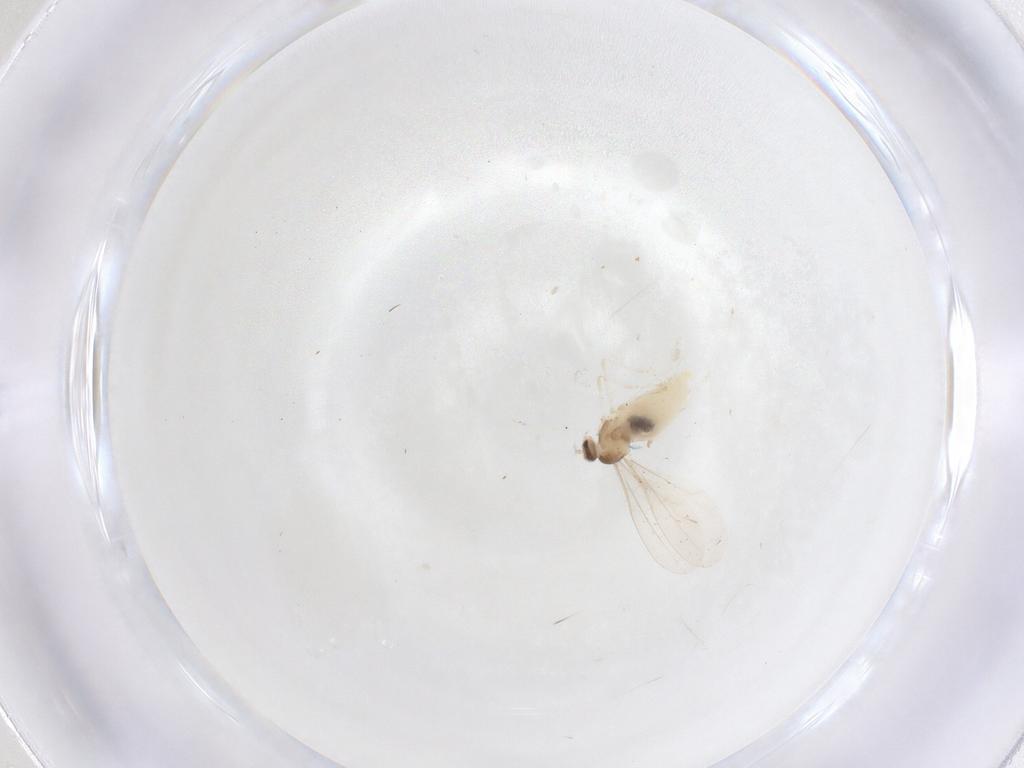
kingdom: Animalia
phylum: Arthropoda
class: Insecta
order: Diptera
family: Chironomidae
